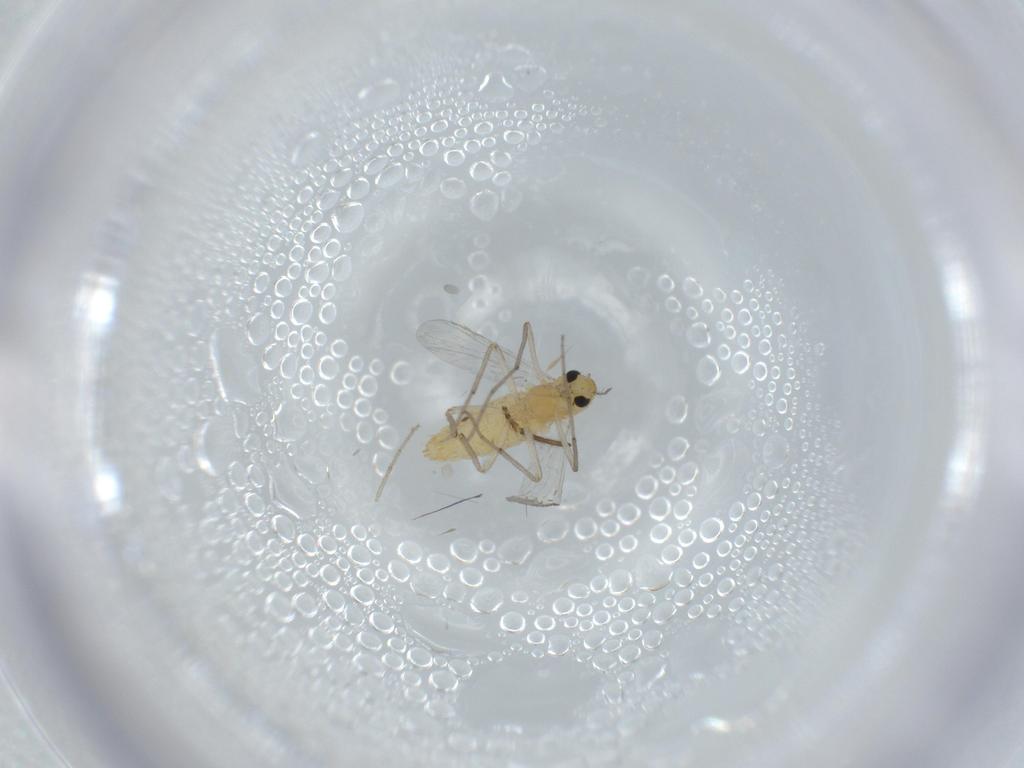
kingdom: Animalia
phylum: Arthropoda
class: Insecta
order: Diptera
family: Chironomidae
